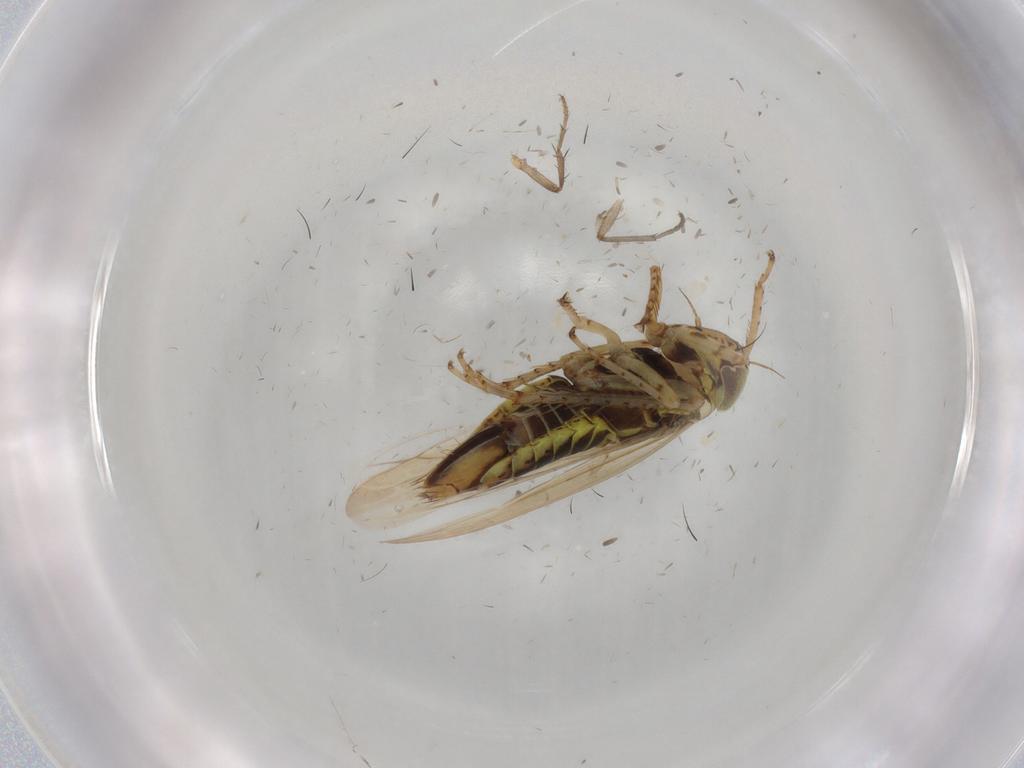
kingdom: Animalia
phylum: Arthropoda
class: Insecta
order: Hemiptera
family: Cicadellidae
